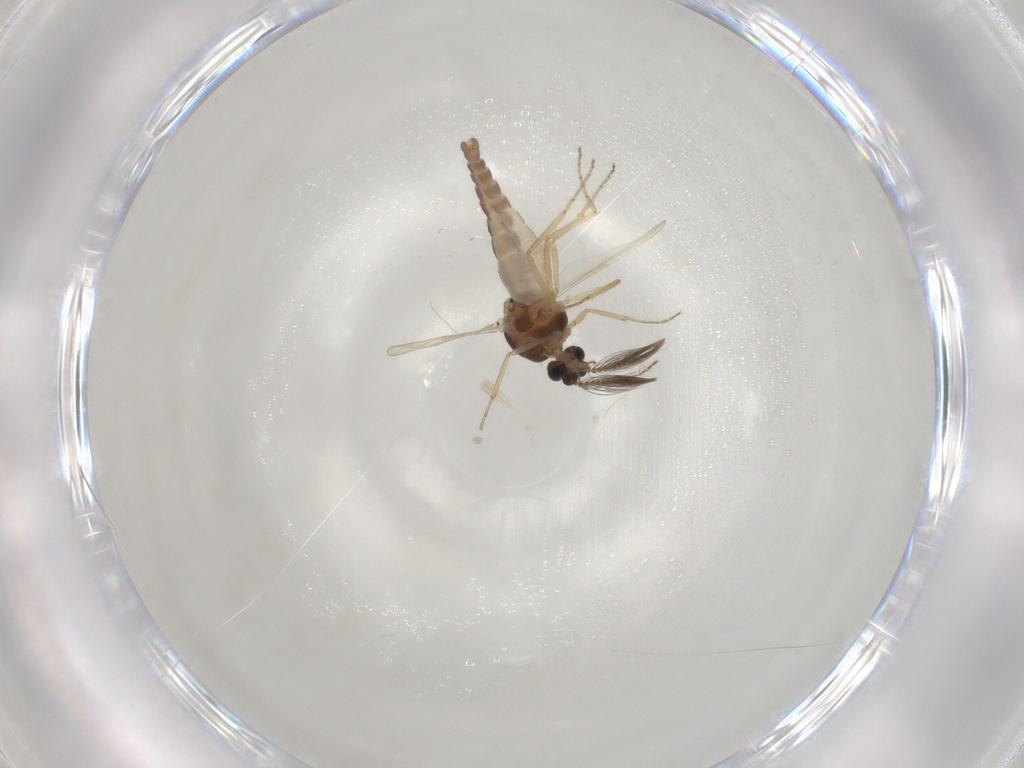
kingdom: Animalia
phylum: Arthropoda
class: Insecta
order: Diptera
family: Ceratopogonidae
